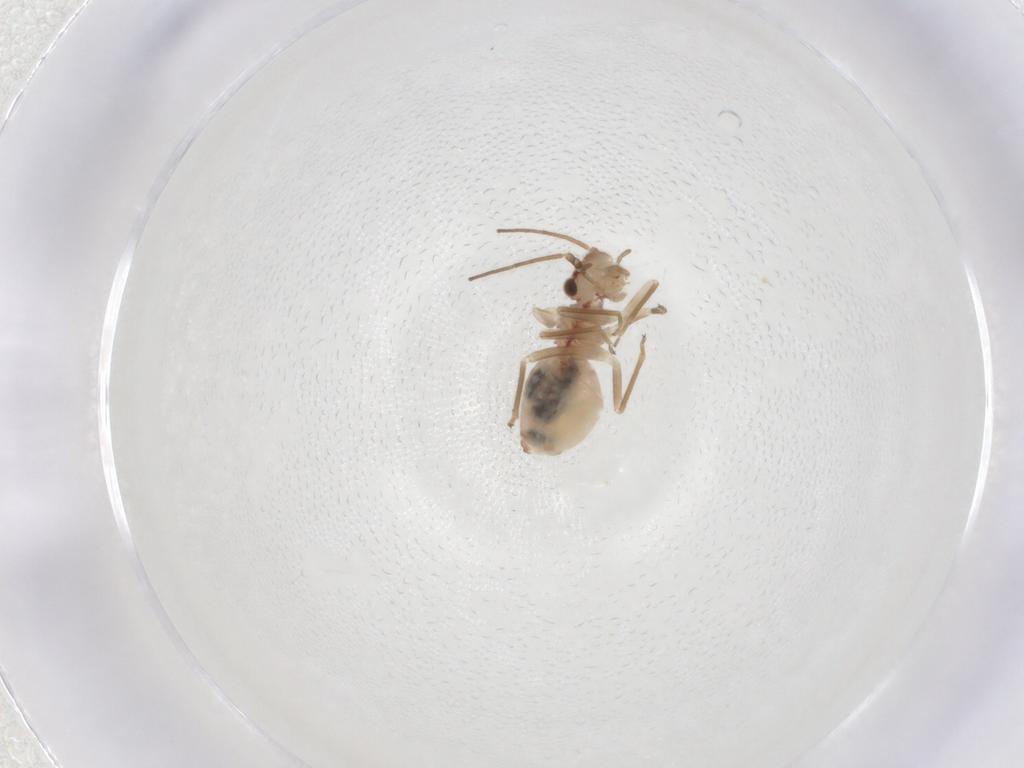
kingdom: Animalia
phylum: Arthropoda
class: Insecta
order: Psocodea
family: Caeciliusidae
